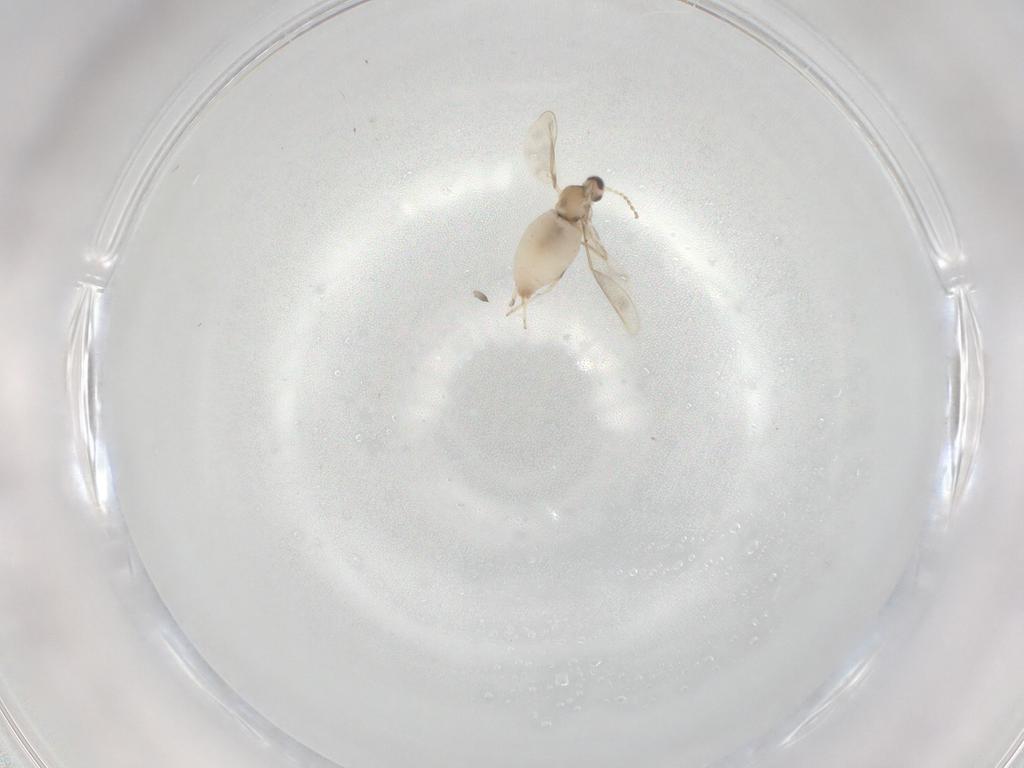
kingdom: Animalia
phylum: Arthropoda
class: Insecta
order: Diptera
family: Cecidomyiidae
